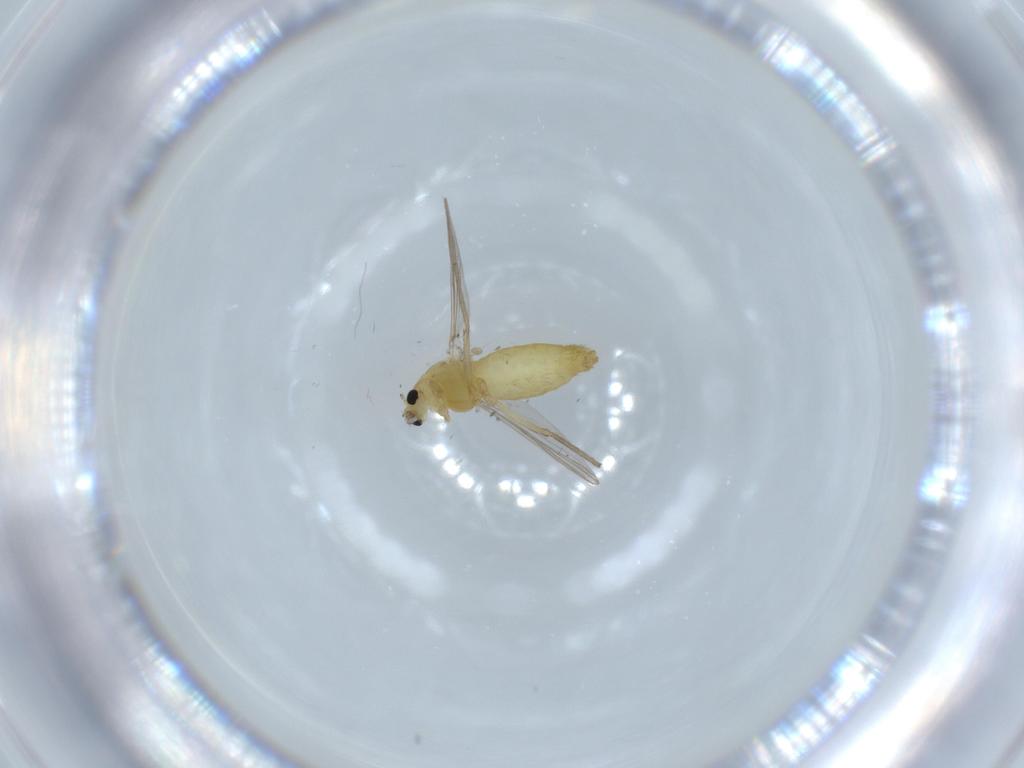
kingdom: Animalia
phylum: Arthropoda
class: Insecta
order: Diptera
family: Chironomidae
